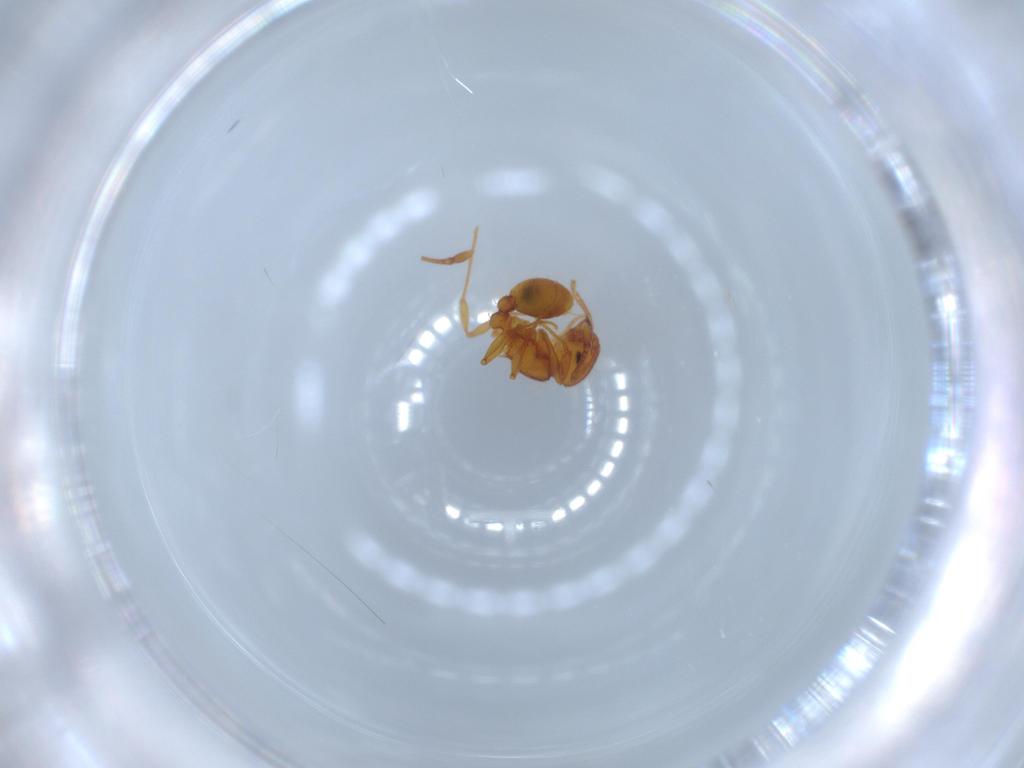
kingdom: Animalia
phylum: Arthropoda
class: Insecta
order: Hymenoptera
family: Formicidae
